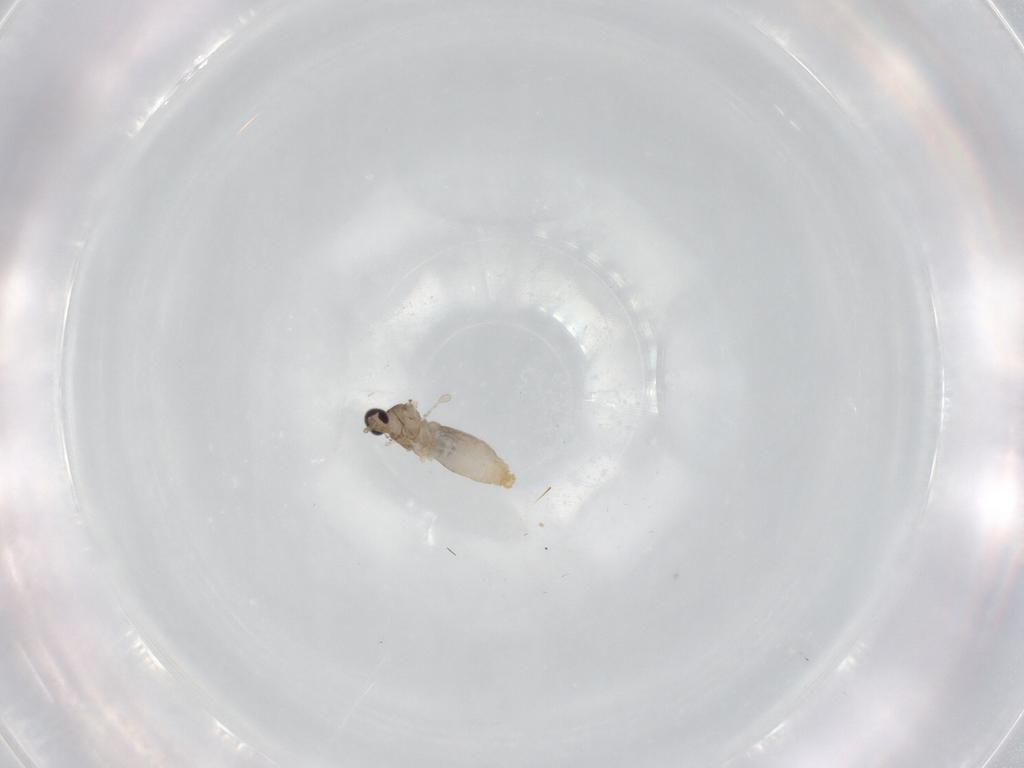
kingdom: Animalia
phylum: Arthropoda
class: Insecta
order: Diptera
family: Cecidomyiidae
